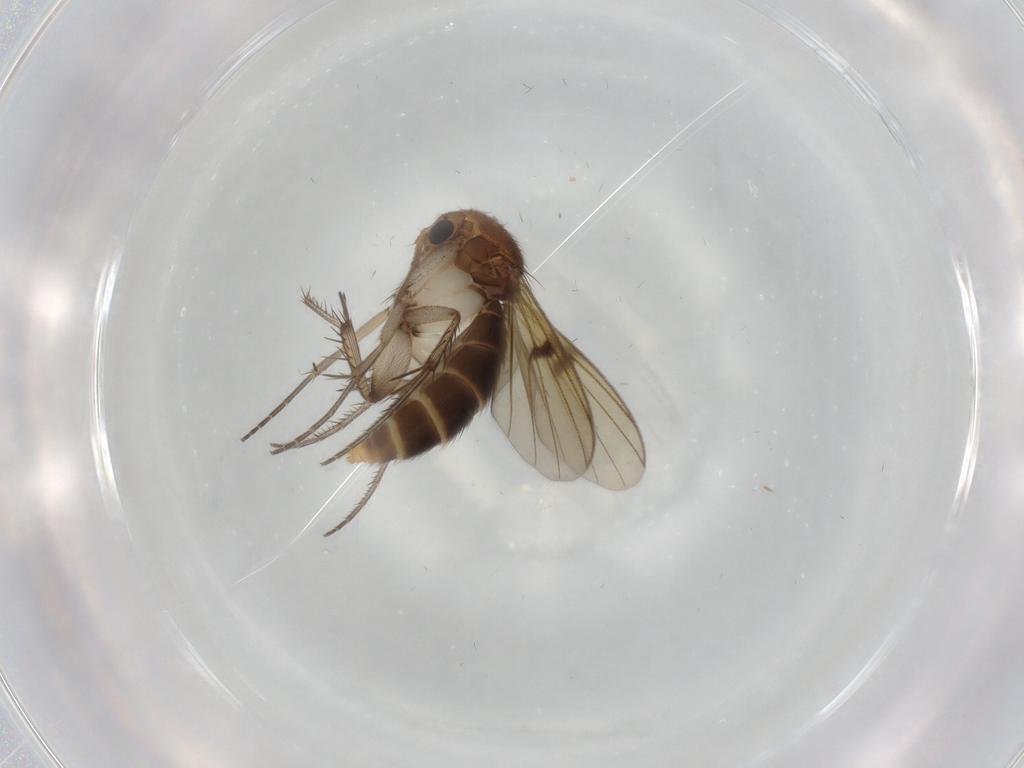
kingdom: Animalia
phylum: Arthropoda
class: Insecta
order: Diptera
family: Mycetophilidae
